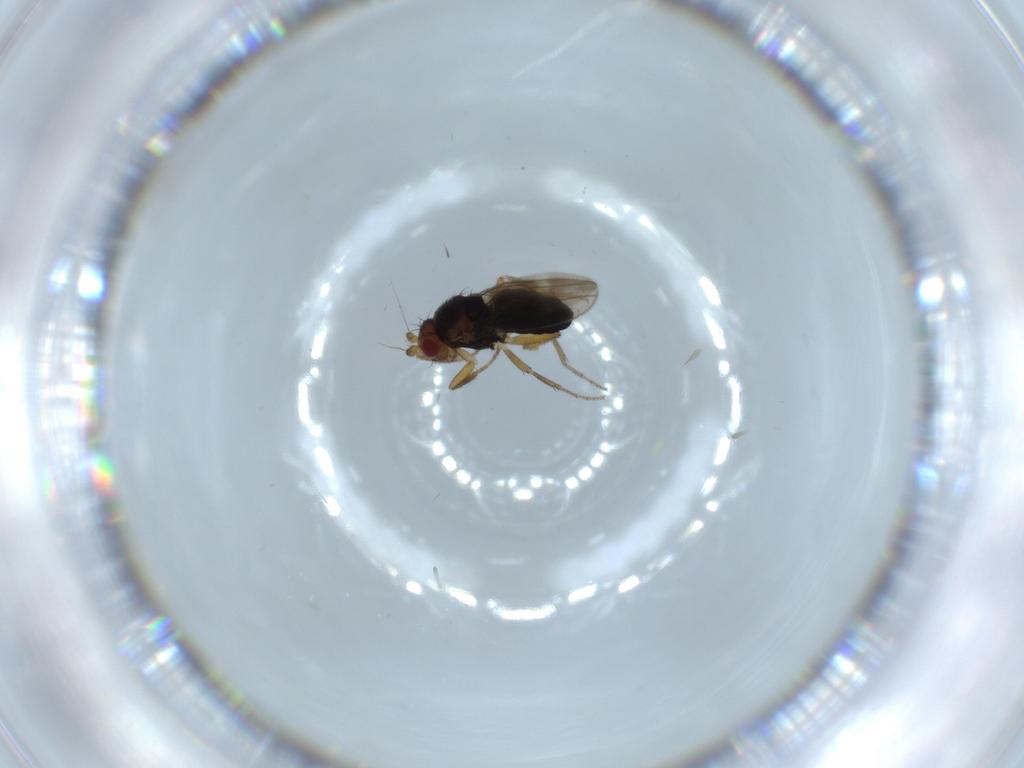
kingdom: Animalia
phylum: Arthropoda
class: Insecta
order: Diptera
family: Sphaeroceridae
